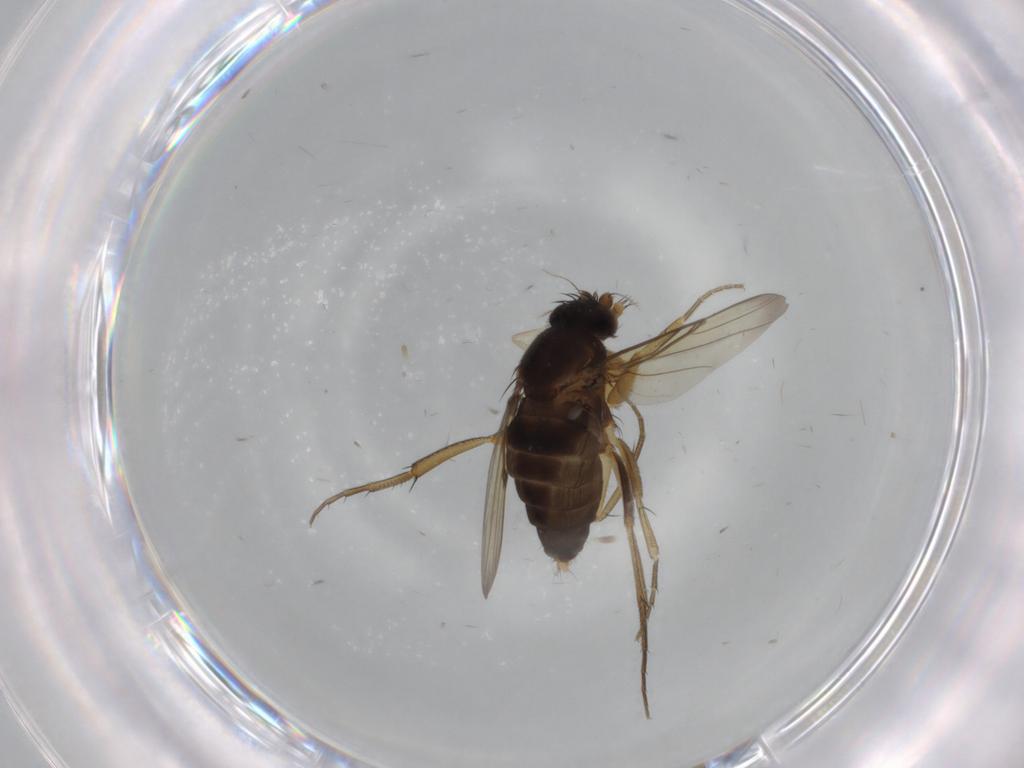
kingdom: Animalia
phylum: Arthropoda
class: Insecta
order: Diptera
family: Phoridae
